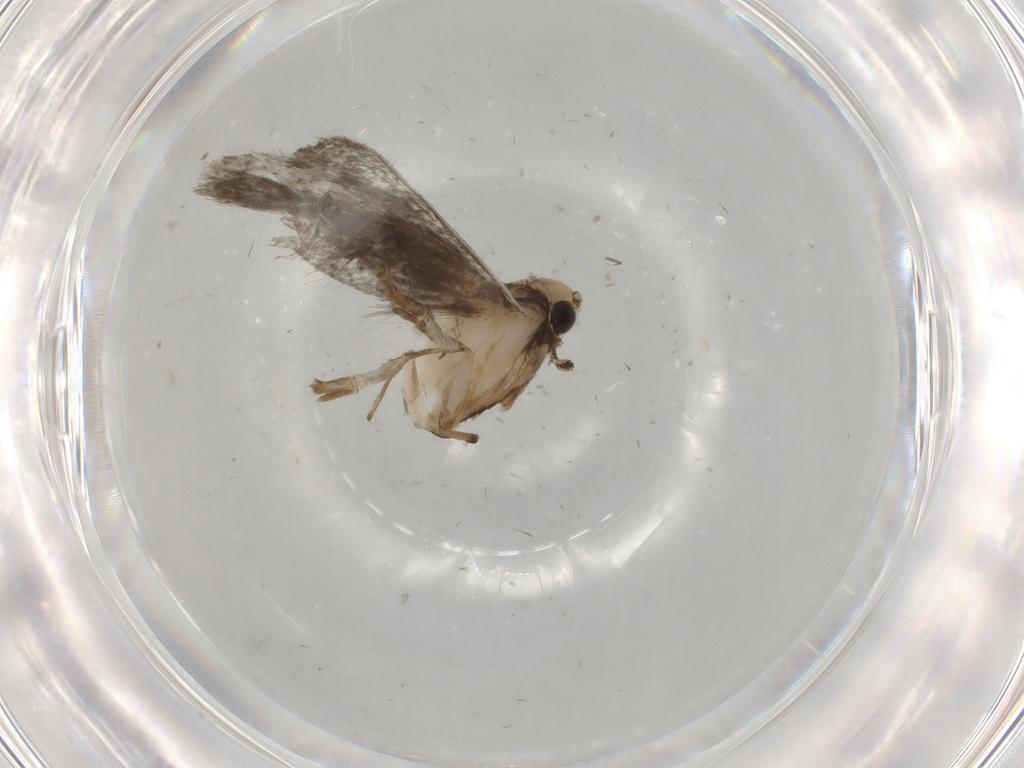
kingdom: Animalia
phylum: Arthropoda
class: Insecta
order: Lepidoptera
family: Tineidae
